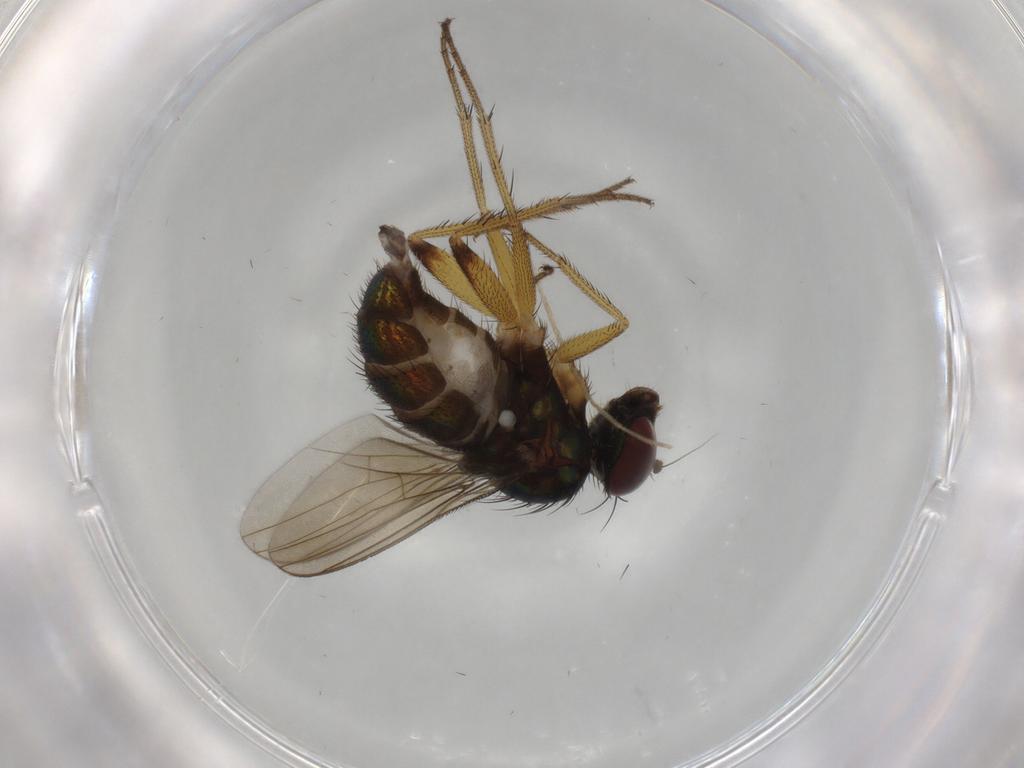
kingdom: Animalia
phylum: Arthropoda
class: Insecta
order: Diptera
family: Dolichopodidae
